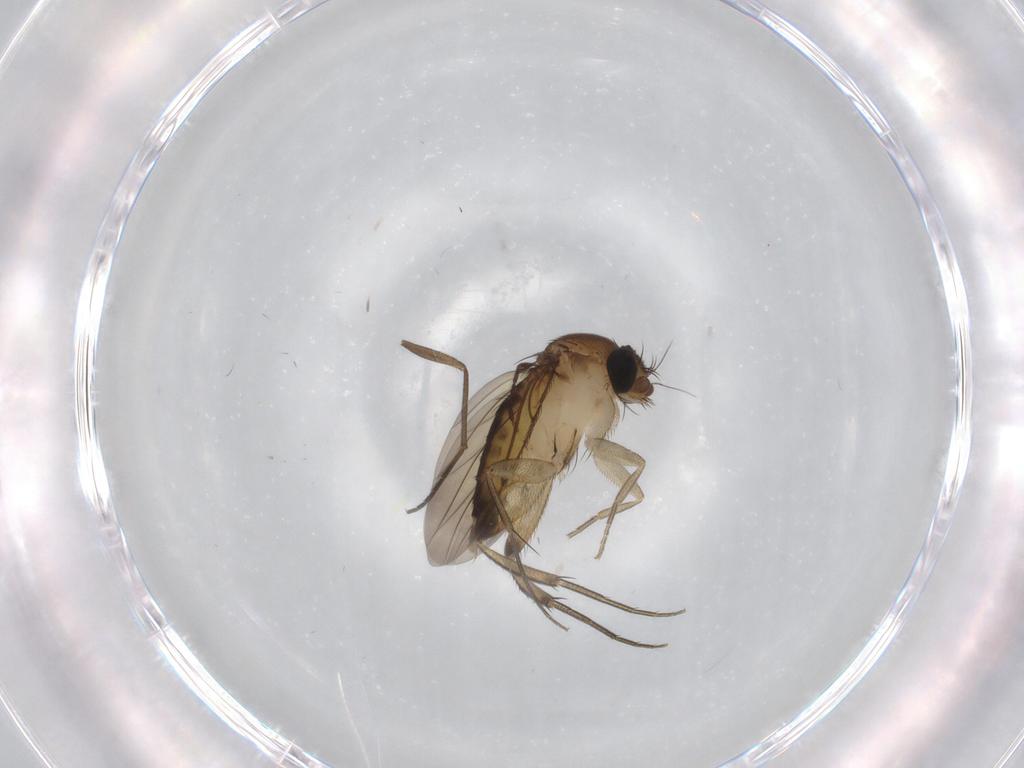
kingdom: Animalia
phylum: Arthropoda
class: Insecta
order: Diptera
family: Phoridae
